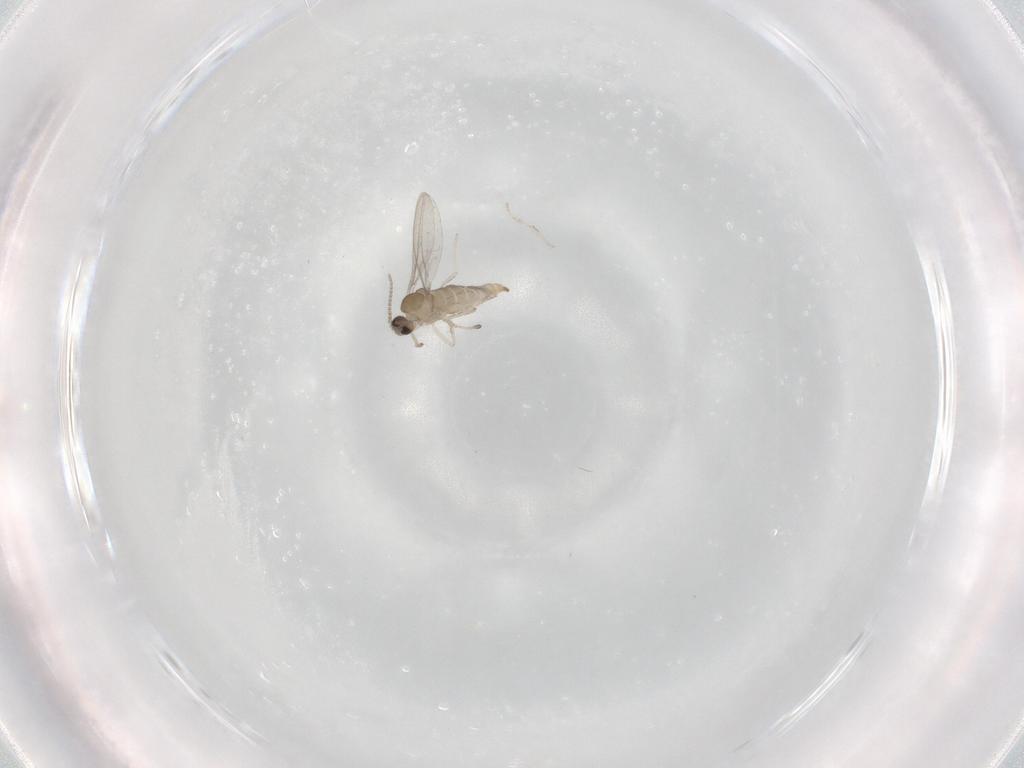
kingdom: Animalia
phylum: Arthropoda
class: Insecta
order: Diptera
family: Cecidomyiidae
